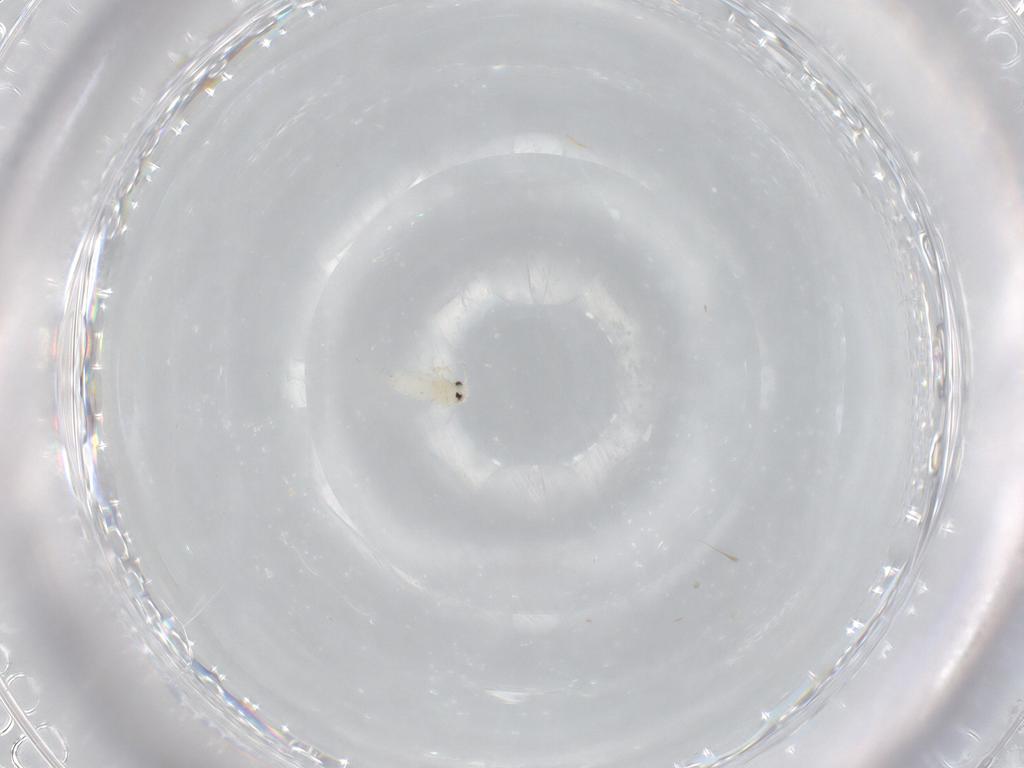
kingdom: Animalia
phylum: Arthropoda
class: Insecta
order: Hemiptera
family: Aleyrodidae
